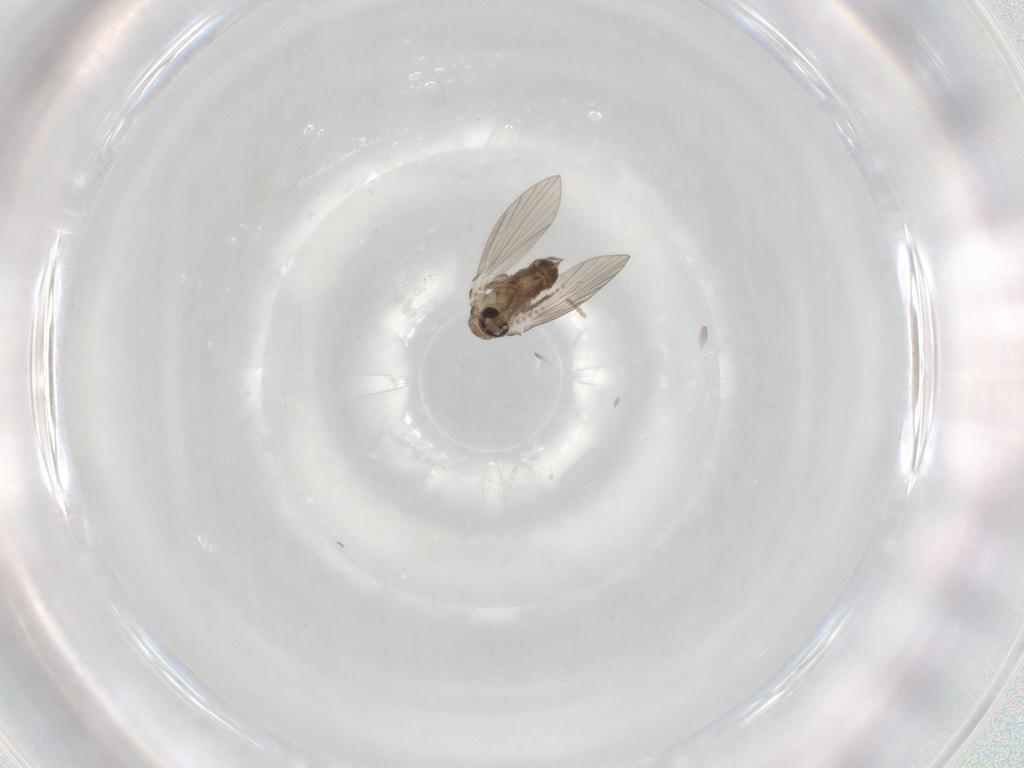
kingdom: Animalia
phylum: Arthropoda
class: Insecta
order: Diptera
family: Psychodidae
